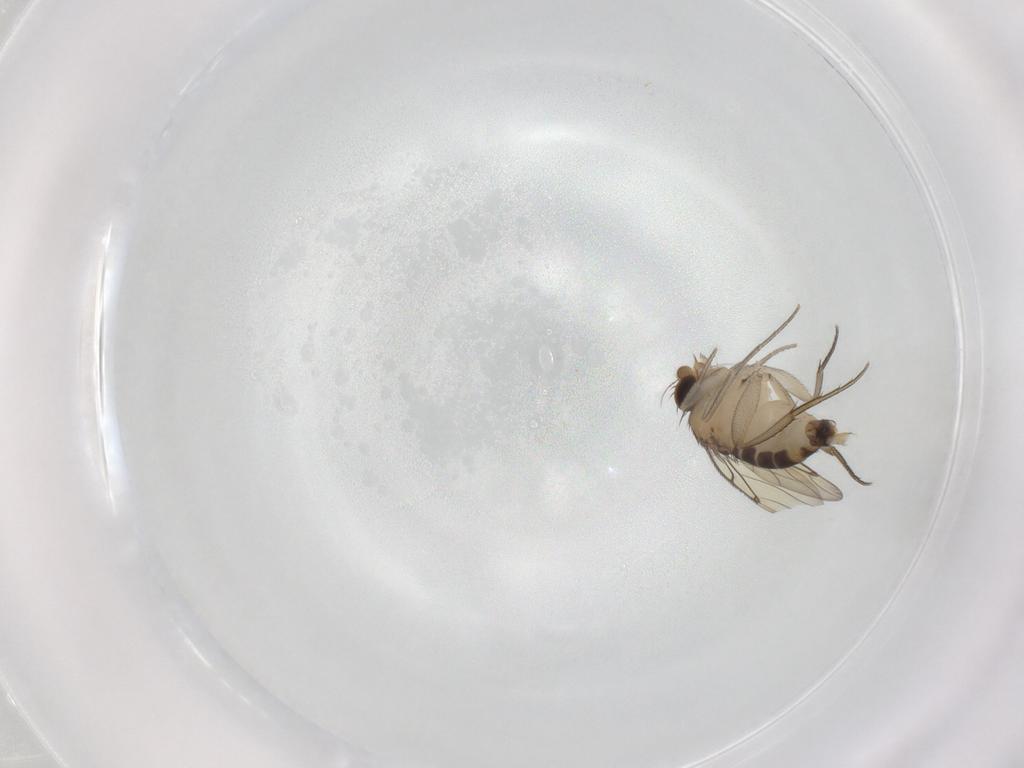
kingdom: Animalia
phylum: Arthropoda
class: Insecta
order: Diptera
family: Phoridae
